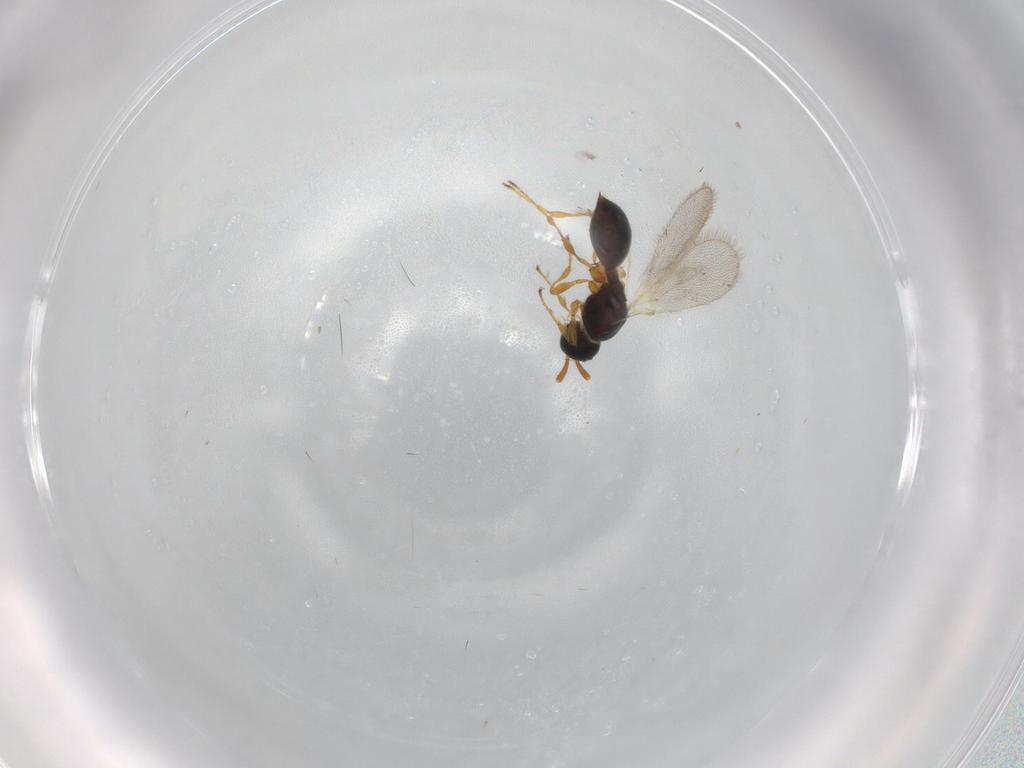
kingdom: Animalia
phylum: Arthropoda
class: Insecta
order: Hymenoptera
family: Diapriidae
